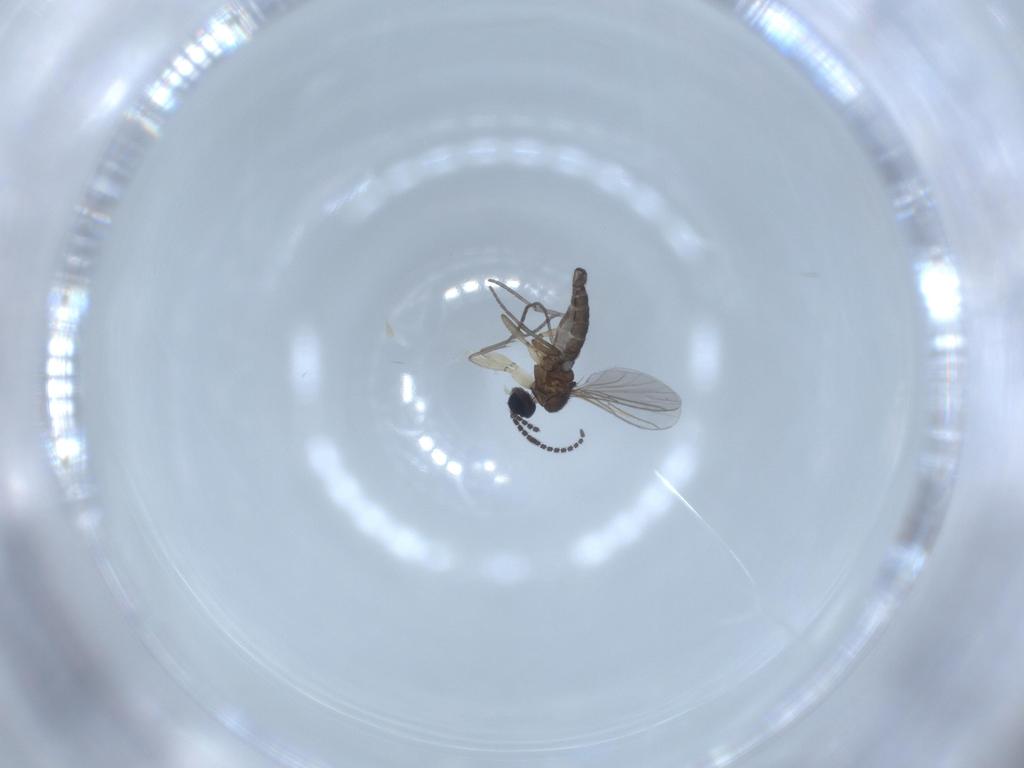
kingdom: Animalia
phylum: Arthropoda
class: Insecta
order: Diptera
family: Sciaridae
